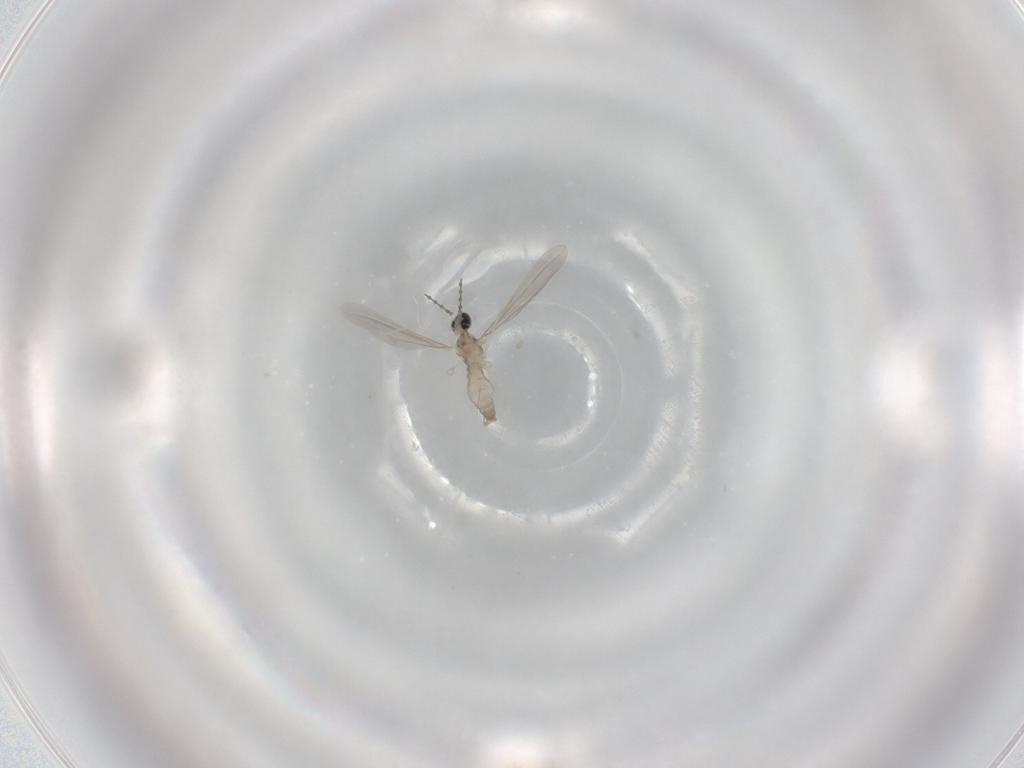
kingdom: Animalia
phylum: Arthropoda
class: Insecta
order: Diptera
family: Cecidomyiidae
